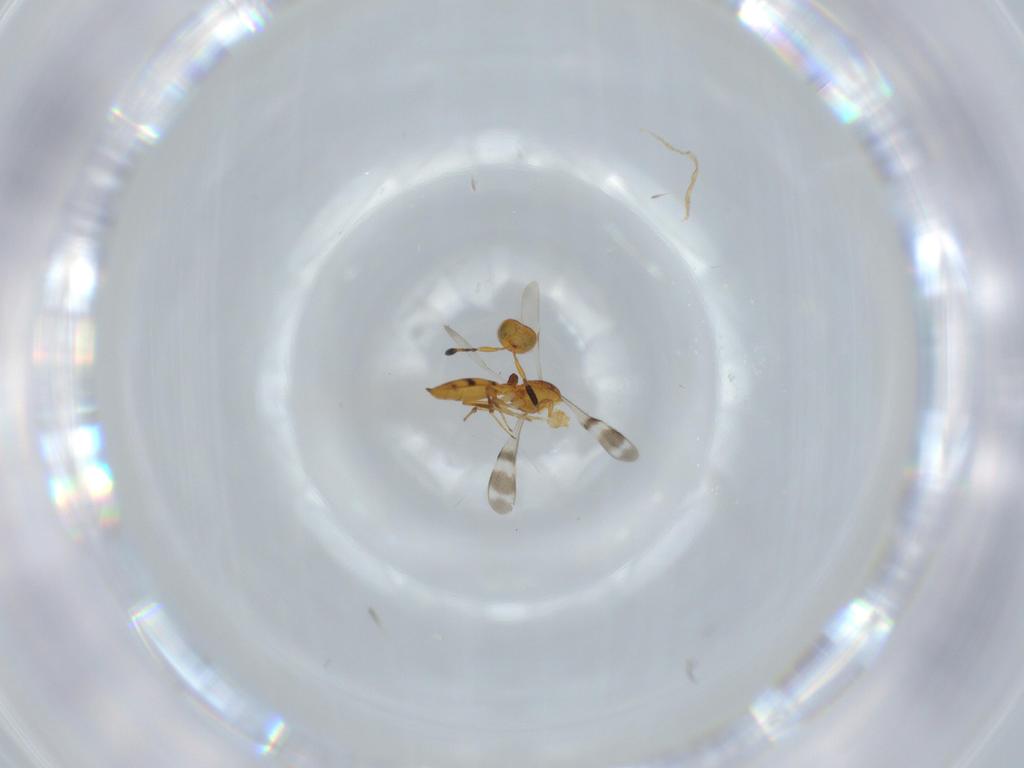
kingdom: Animalia
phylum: Arthropoda
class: Insecta
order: Hymenoptera
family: Scelionidae
